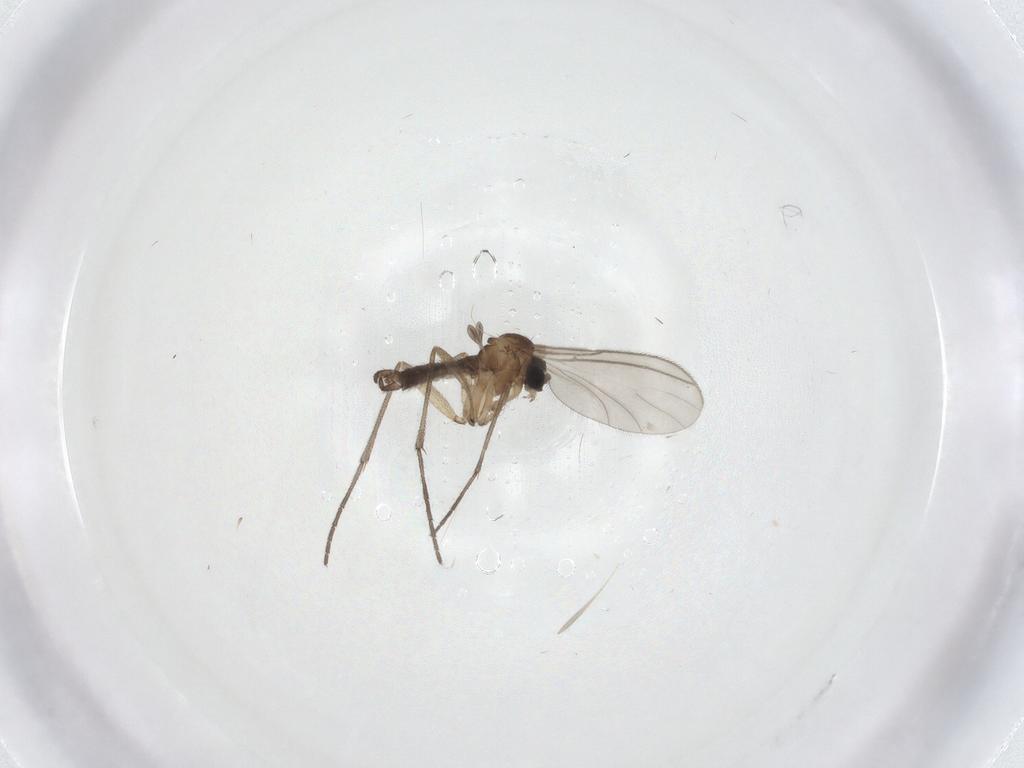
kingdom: Animalia
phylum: Arthropoda
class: Insecta
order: Diptera
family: Sciaridae
